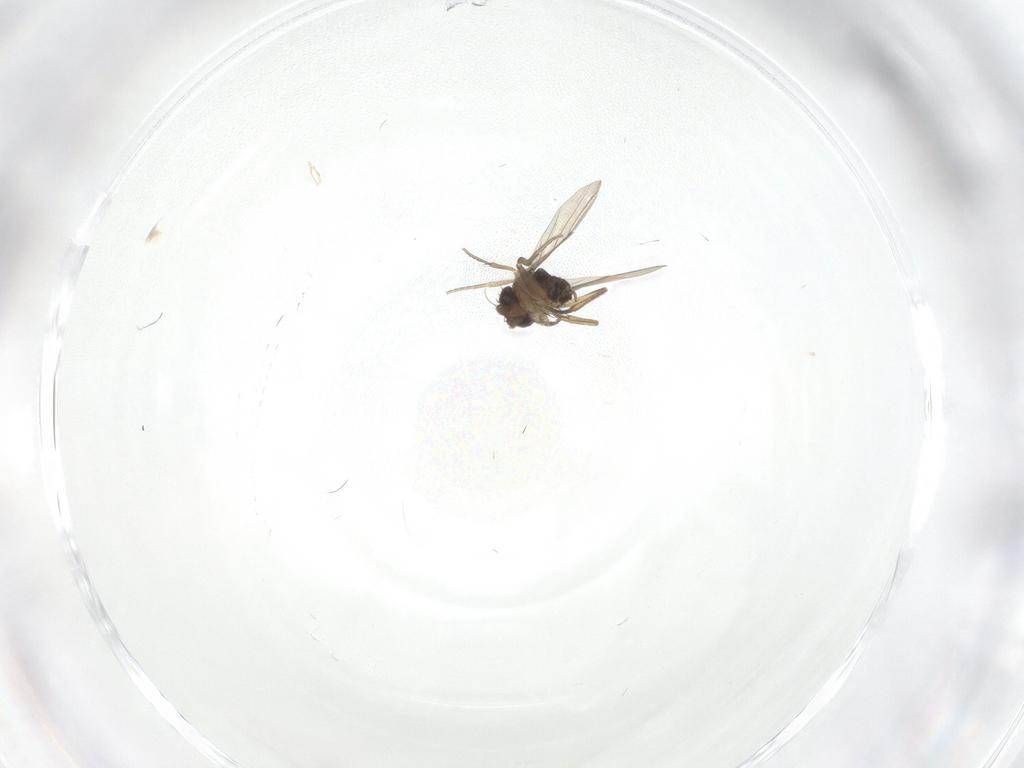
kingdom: Animalia
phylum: Arthropoda
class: Insecta
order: Diptera
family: Phoridae
